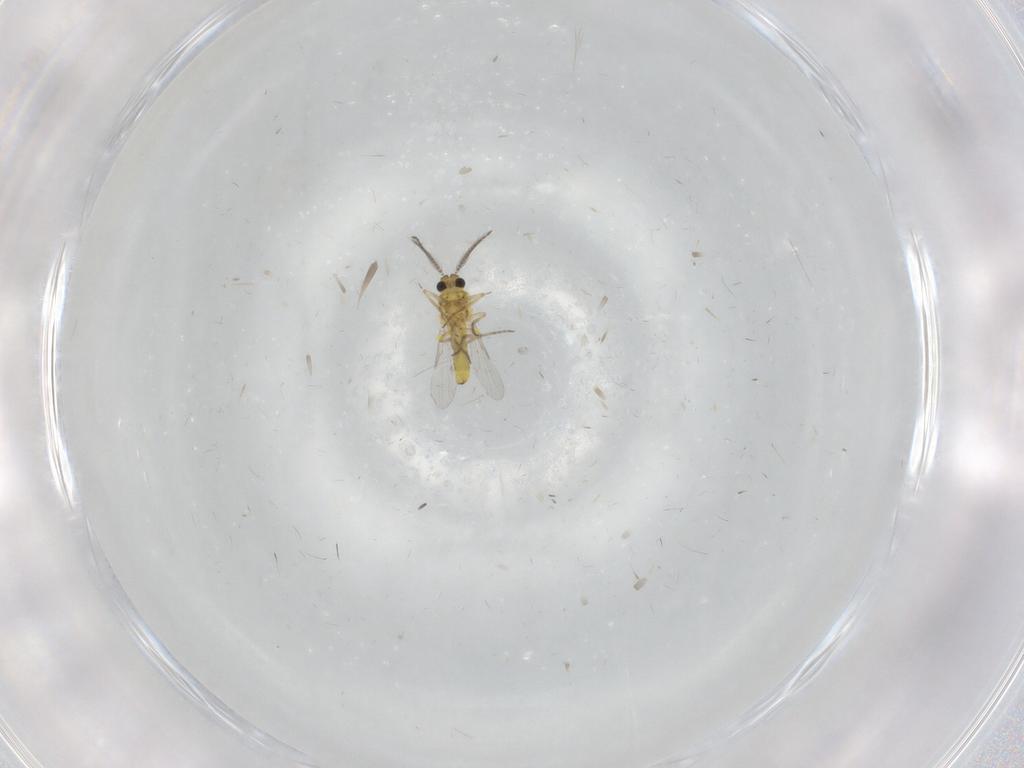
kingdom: Animalia
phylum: Arthropoda
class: Insecta
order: Diptera
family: Ceratopogonidae
